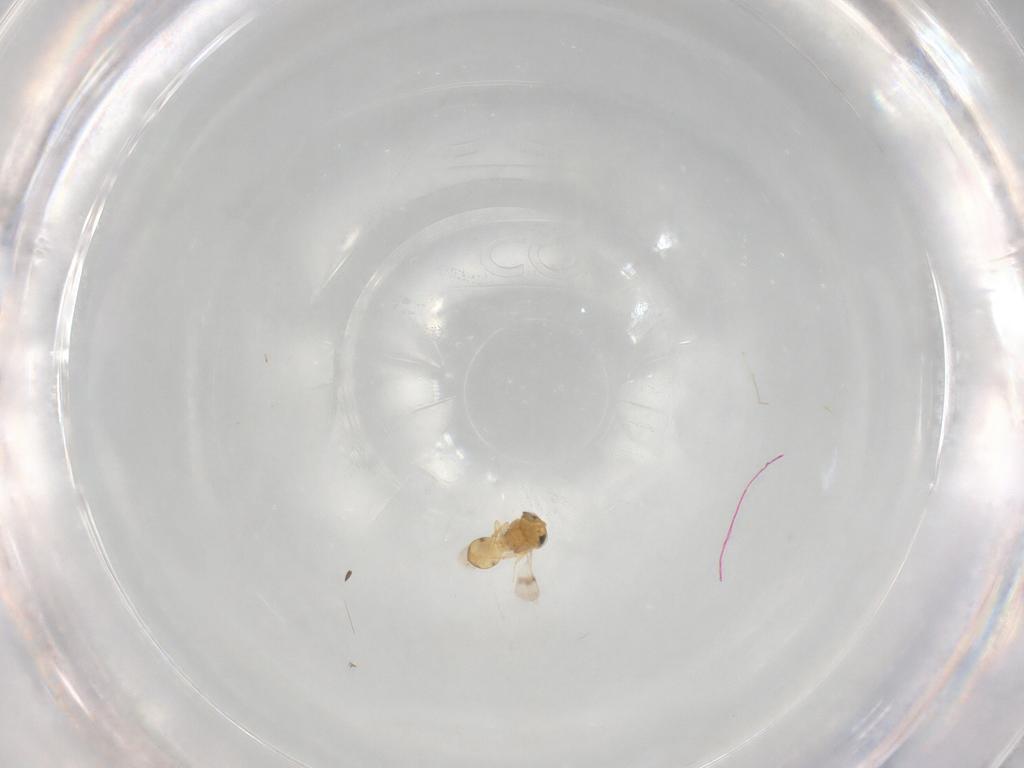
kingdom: Animalia
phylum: Arthropoda
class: Insecta
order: Hymenoptera
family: Scelionidae
